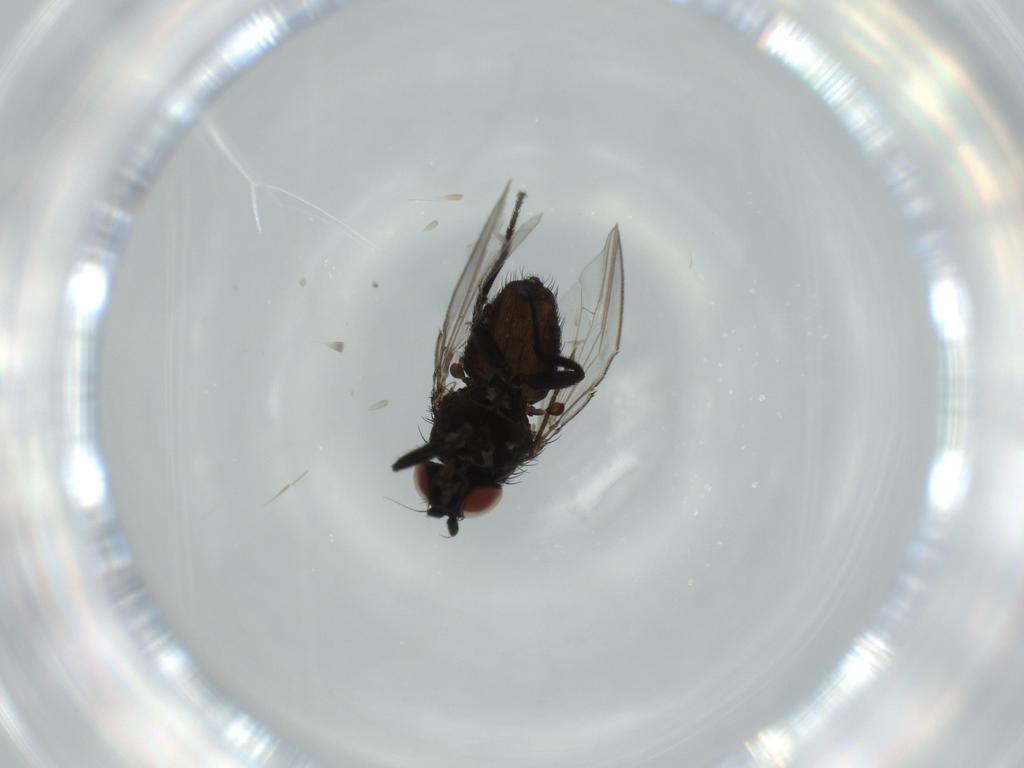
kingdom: Animalia
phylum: Arthropoda
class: Insecta
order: Diptera
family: Milichiidae
